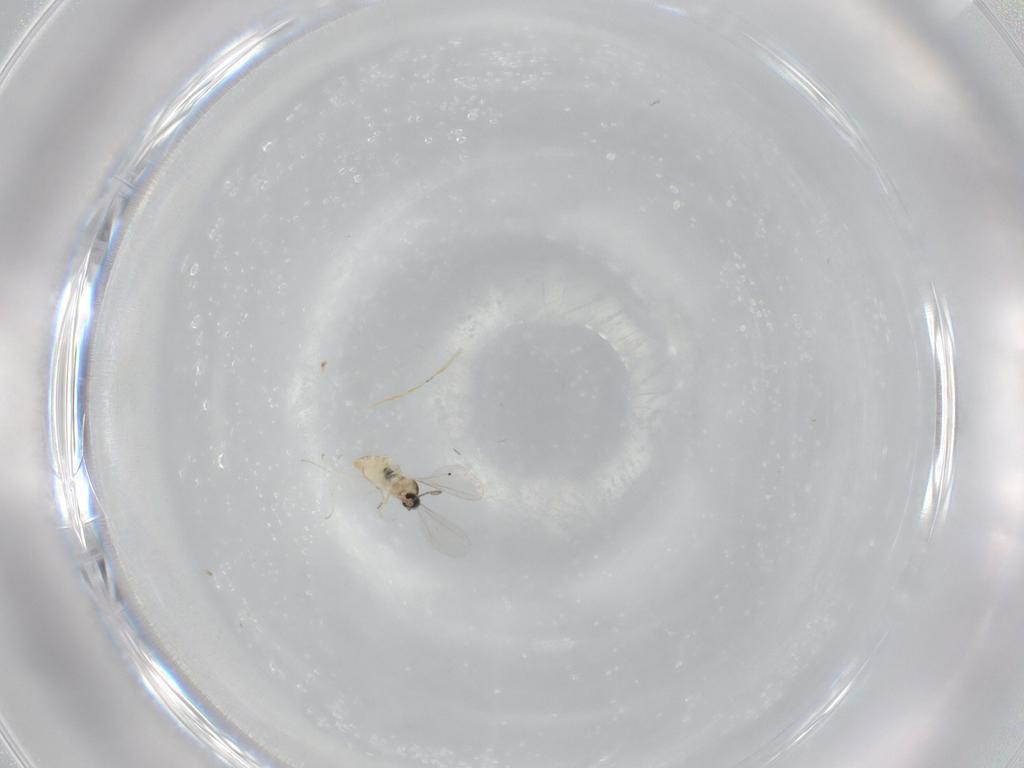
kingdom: Animalia
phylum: Arthropoda
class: Insecta
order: Diptera
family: Cecidomyiidae
